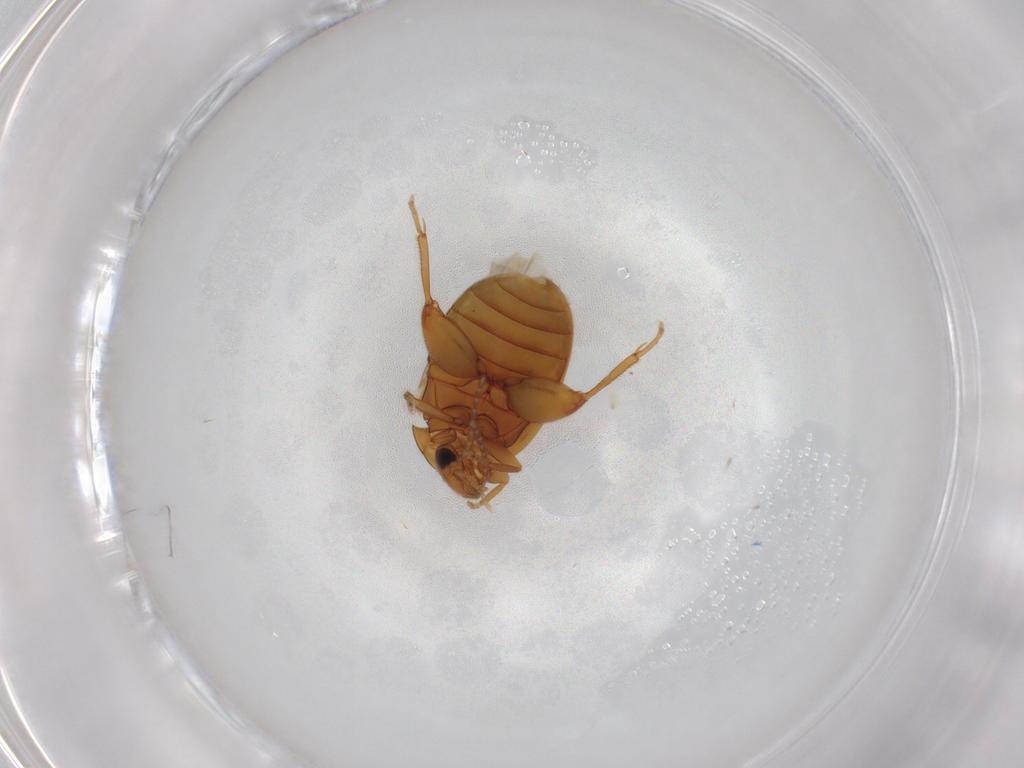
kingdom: Animalia
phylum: Arthropoda
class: Insecta
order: Coleoptera
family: Scirtidae
